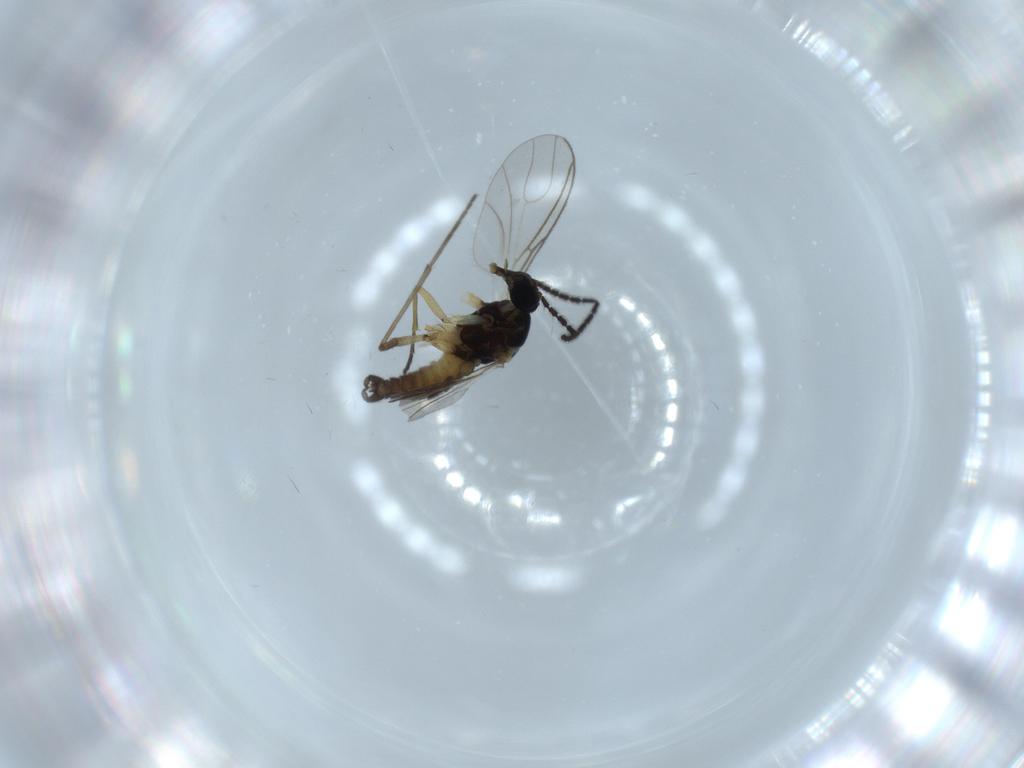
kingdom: Animalia
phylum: Arthropoda
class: Insecta
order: Diptera
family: Sciaridae
